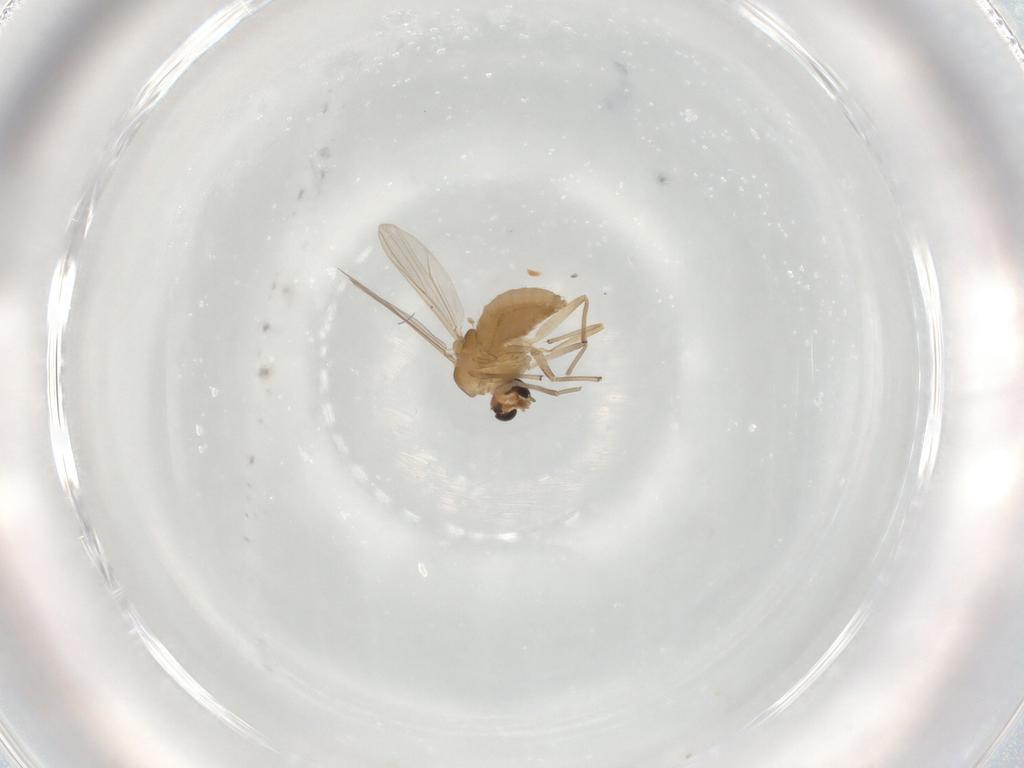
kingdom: Animalia
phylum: Arthropoda
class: Insecta
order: Diptera
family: Chironomidae
